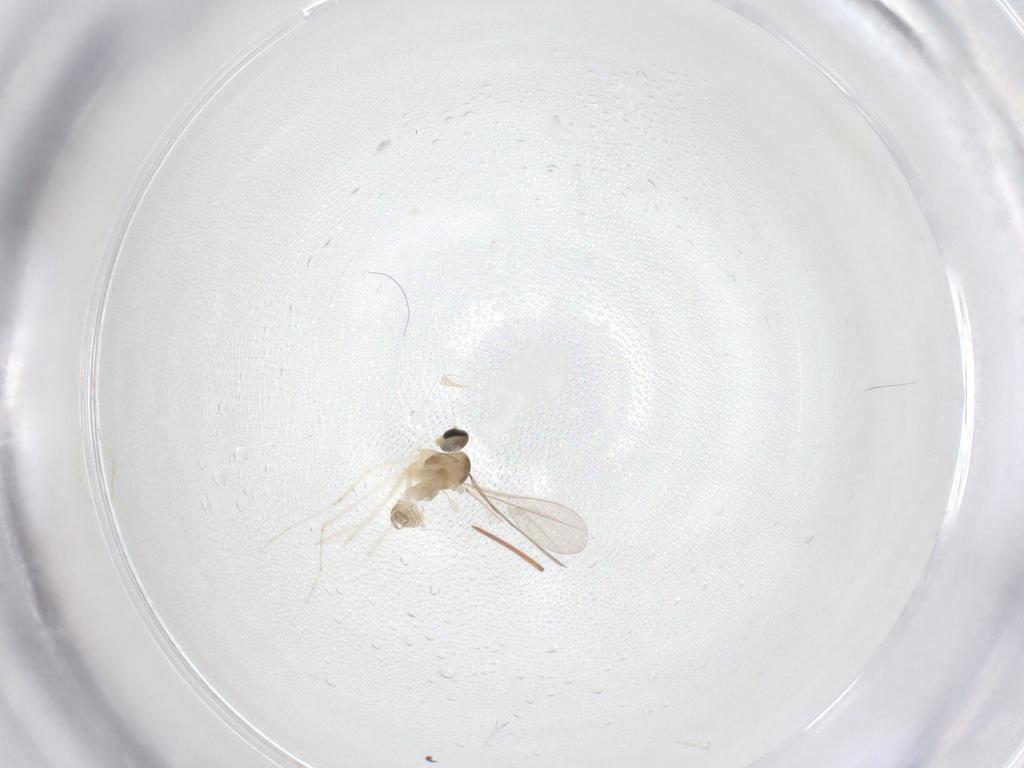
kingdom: Animalia
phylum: Arthropoda
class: Insecta
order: Diptera
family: Cecidomyiidae
